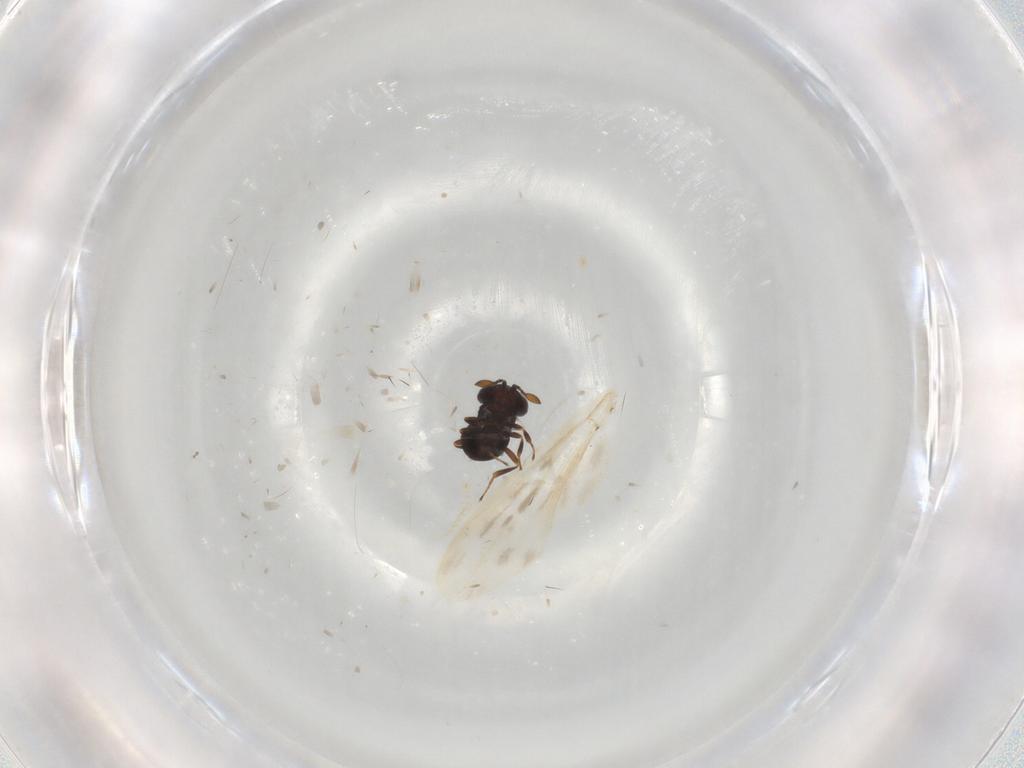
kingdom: Animalia
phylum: Arthropoda
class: Insecta
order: Hymenoptera
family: Scelionidae
